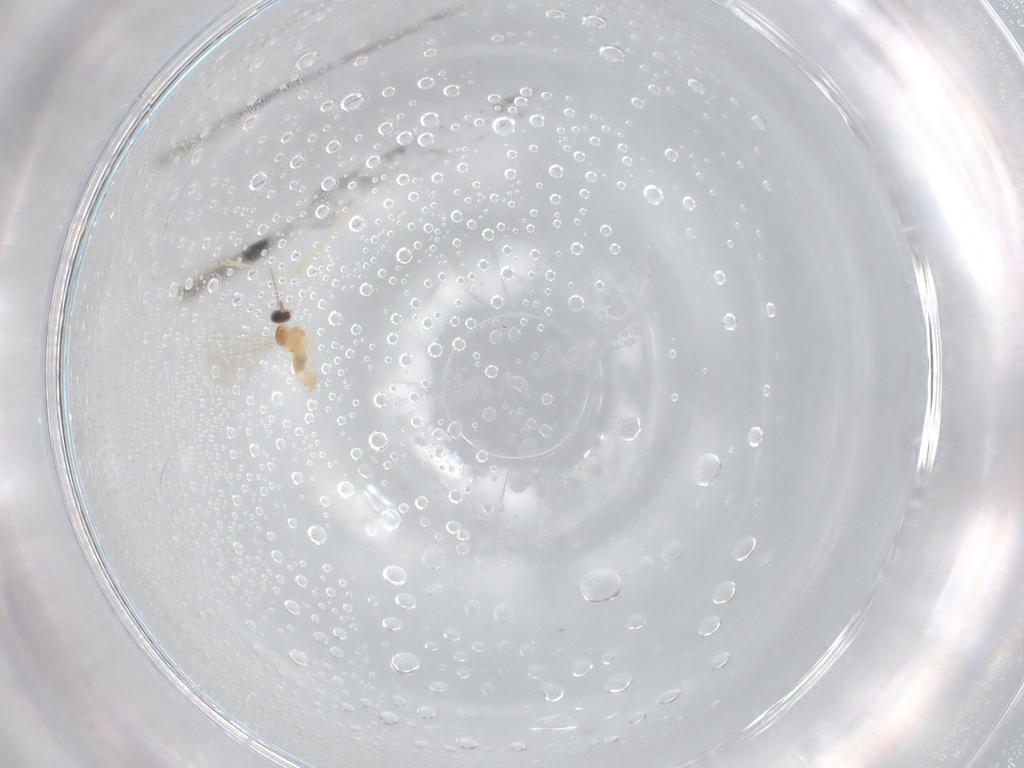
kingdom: Animalia
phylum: Arthropoda
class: Insecta
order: Diptera
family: Cecidomyiidae
